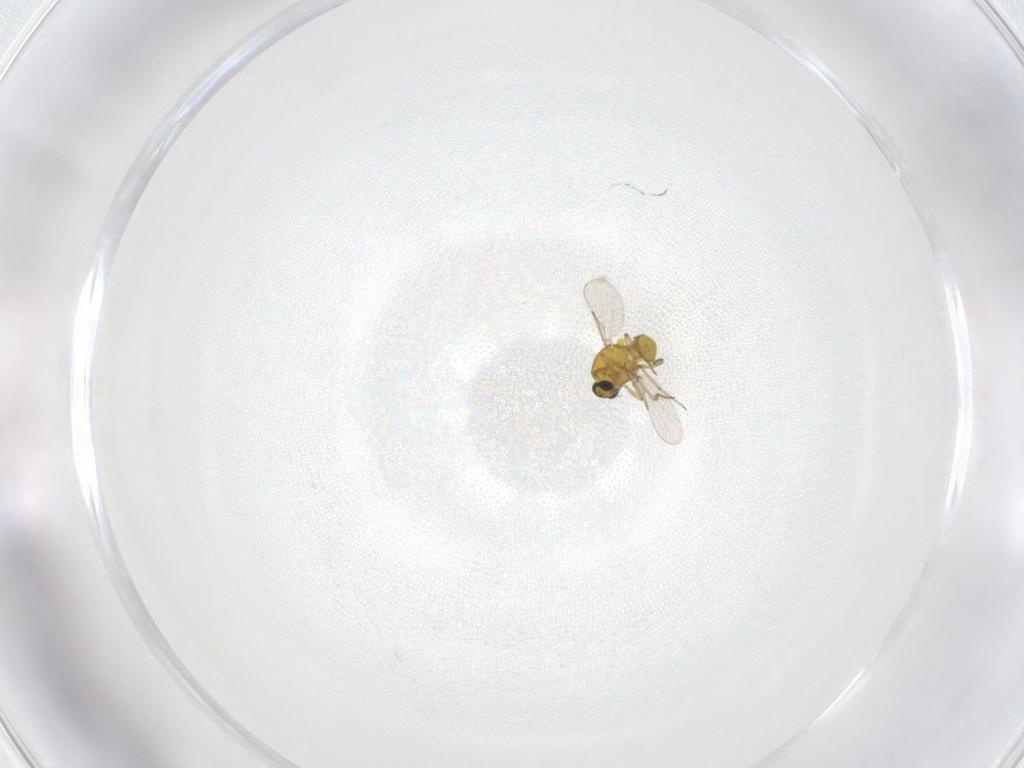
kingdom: Animalia
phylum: Arthropoda
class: Insecta
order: Diptera
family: Ceratopogonidae
